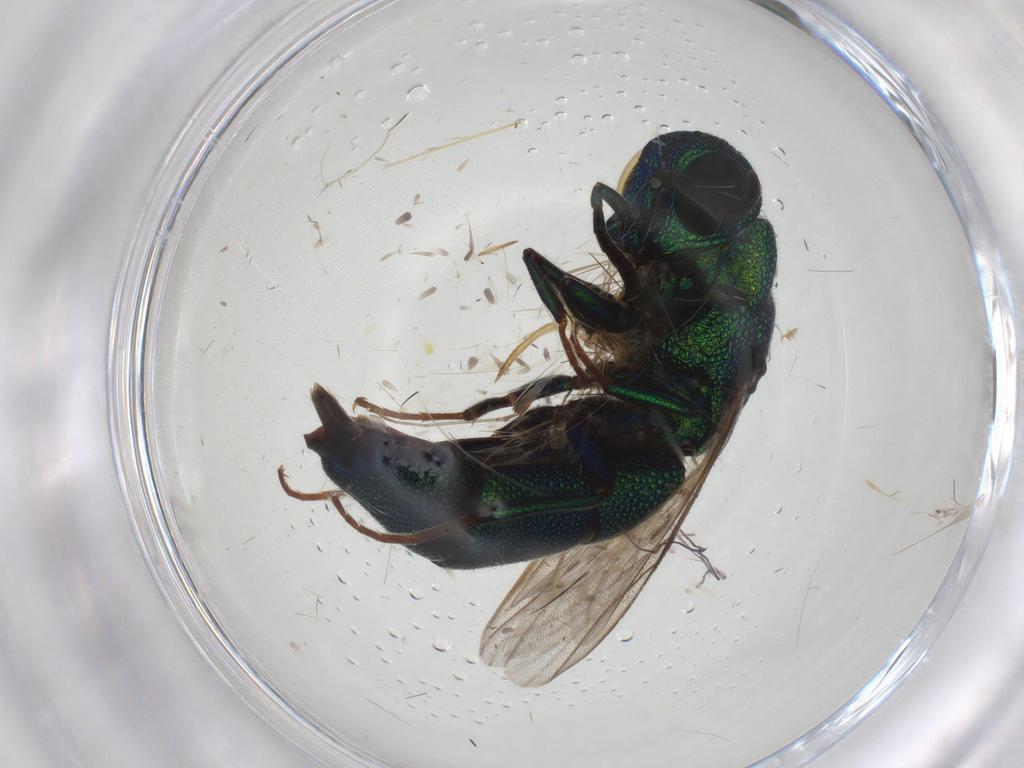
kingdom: Animalia
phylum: Arthropoda
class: Insecta
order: Hymenoptera
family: Chrysididae
